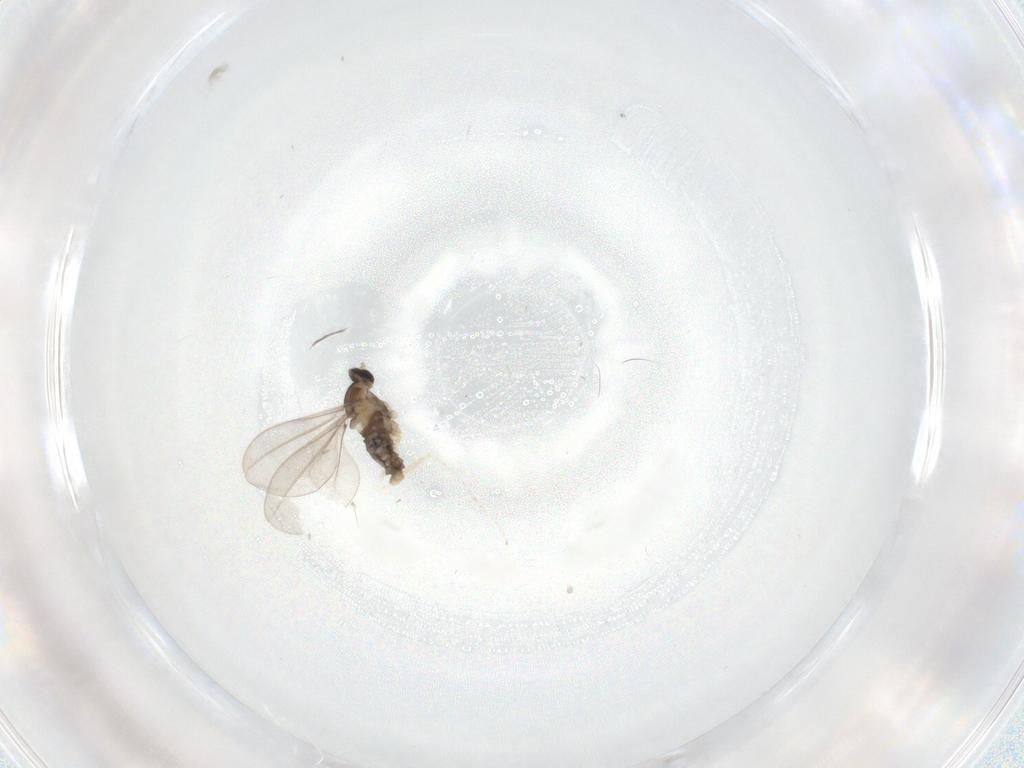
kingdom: Animalia
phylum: Arthropoda
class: Insecta
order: Diptera
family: Cecidomyiidae
